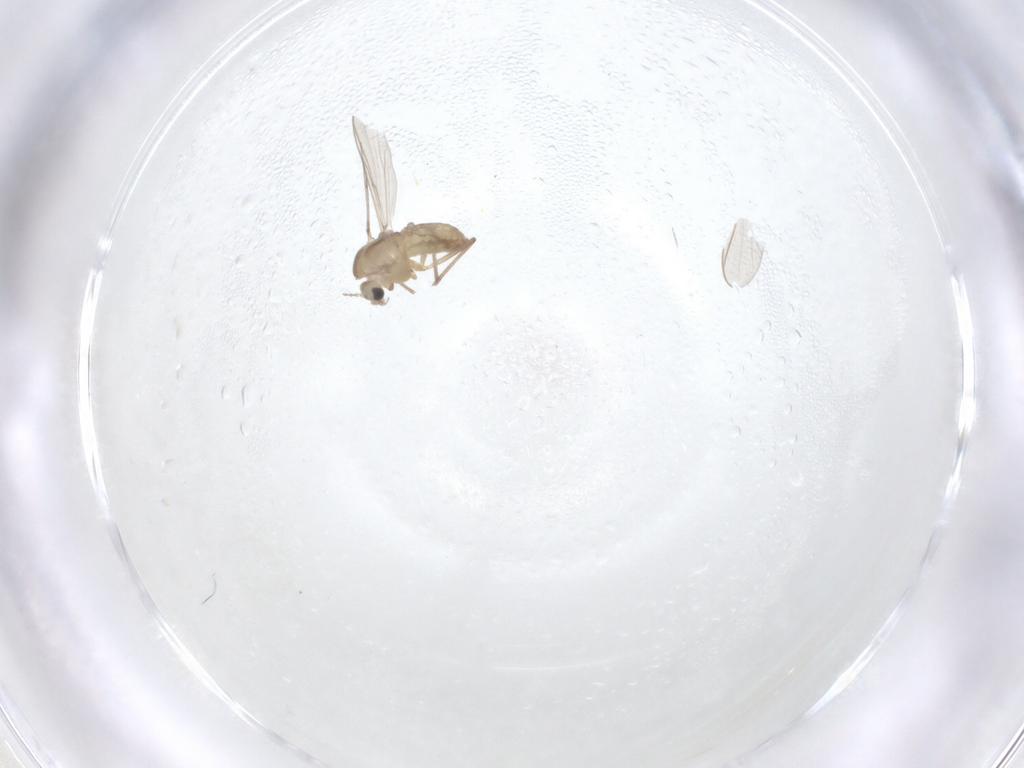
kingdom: Animalia
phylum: Arthropoda
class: Insecta
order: Diptera
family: Chironomidae
